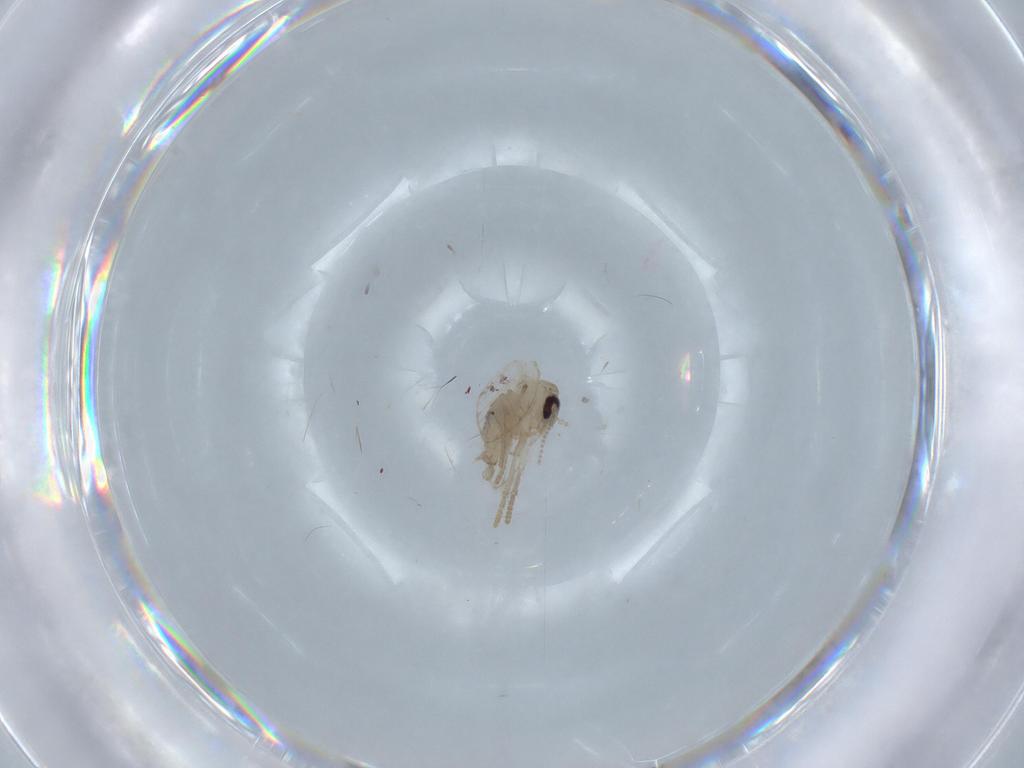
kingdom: Animalia
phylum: Arthropoda
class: Insecta
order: Diptera
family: Psychodidae
